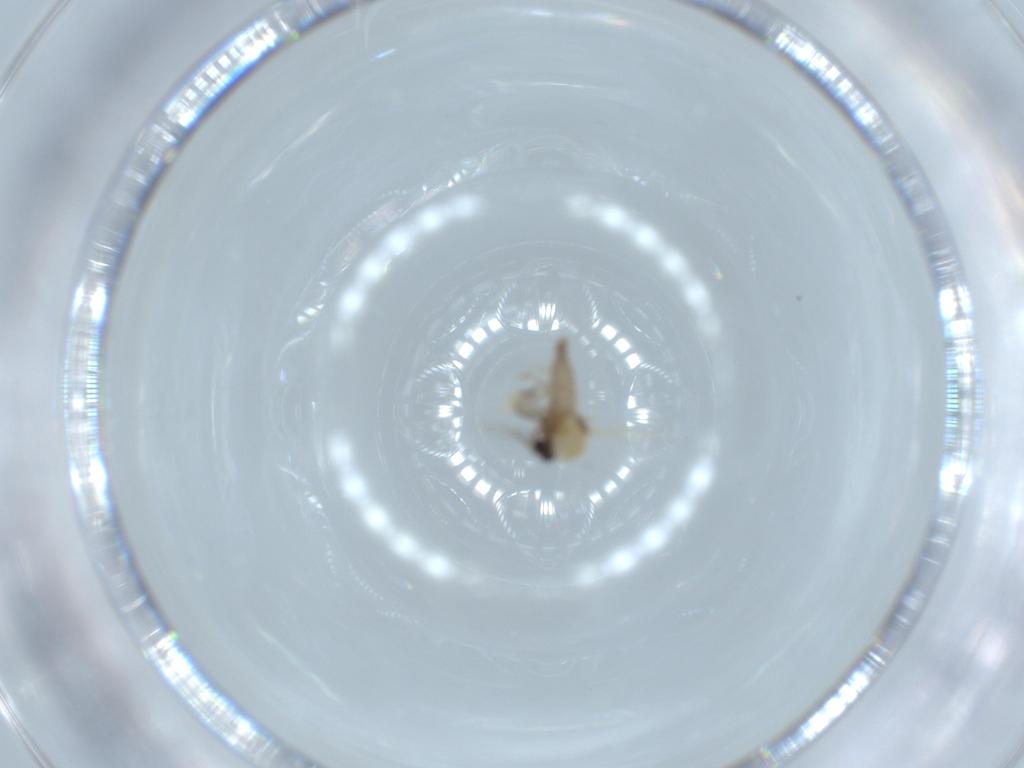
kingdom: Animalia
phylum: Arthropoda
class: Insecta
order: Diptera
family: Ceratopogonidae
